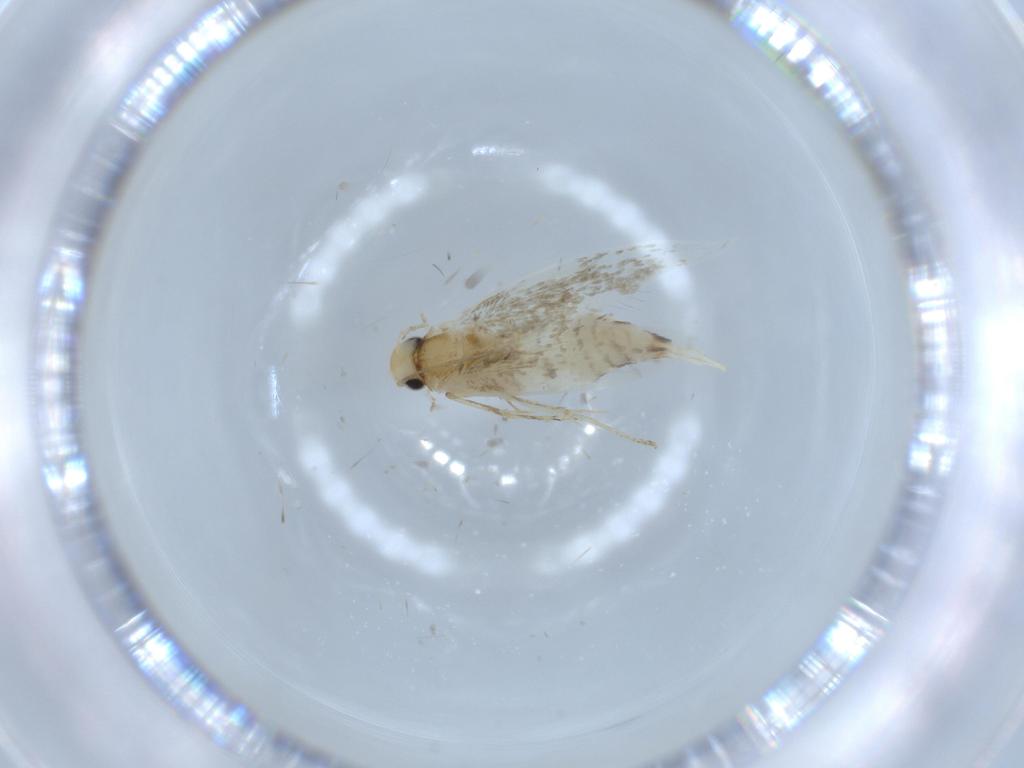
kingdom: Animalia
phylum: Arthropoda
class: Insecta
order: Lepidoptera
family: Tineidae
